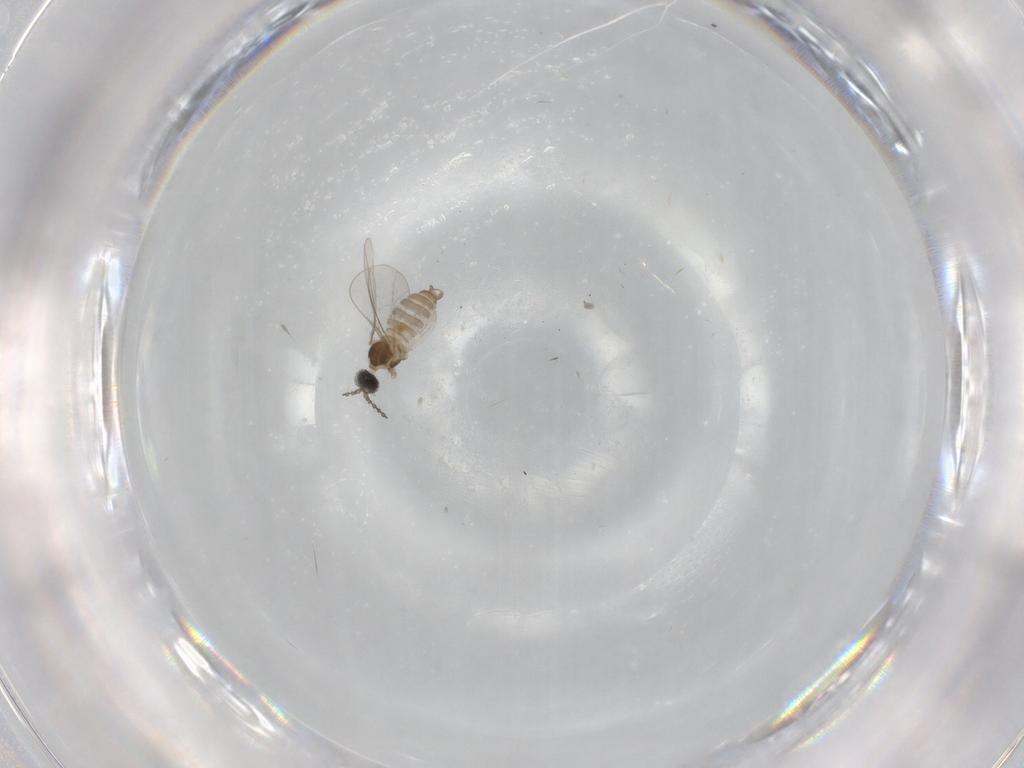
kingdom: Animalia
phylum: Arthropoda
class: Insecta
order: Diptera
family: Cecidomyiidae
